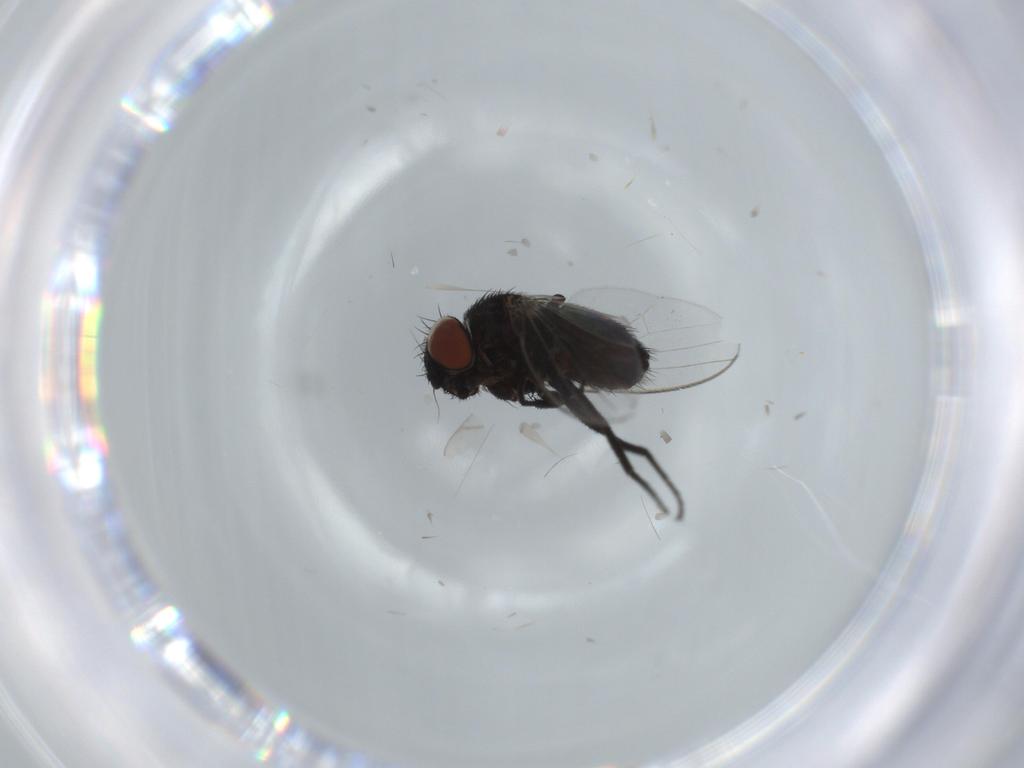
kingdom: Animalia
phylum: Arthropoda
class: Insecta
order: Diptera
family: Milichiidae
